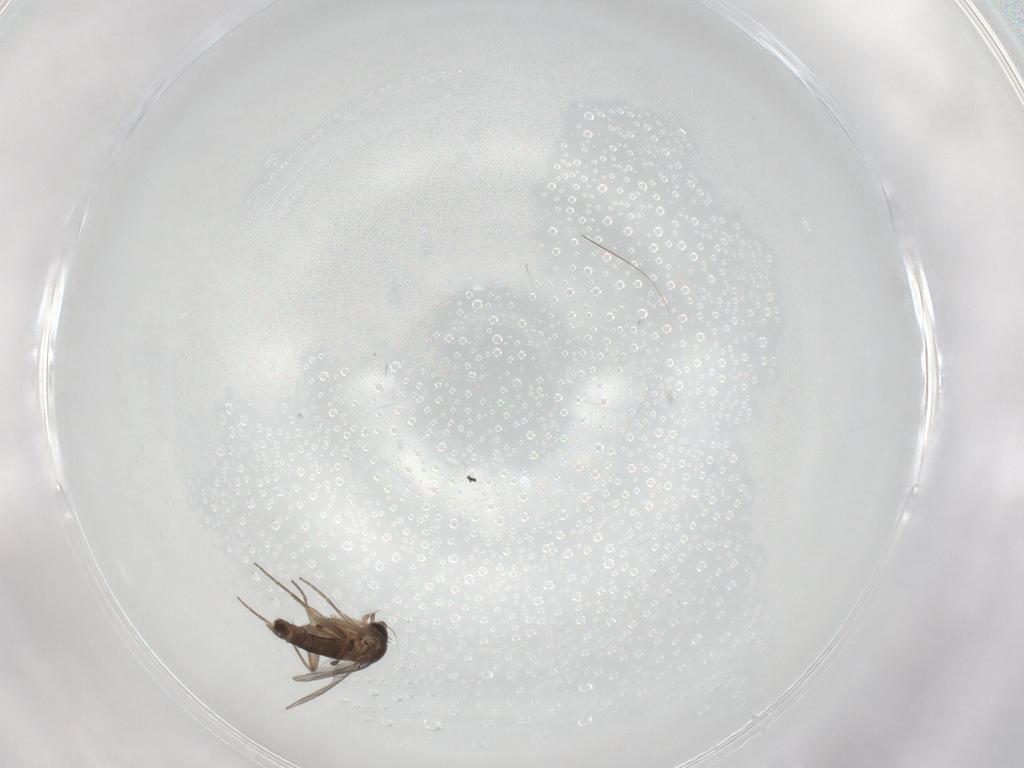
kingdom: Animalia
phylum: Arthropoda
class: Insecta
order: Diptera
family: Phoridae
